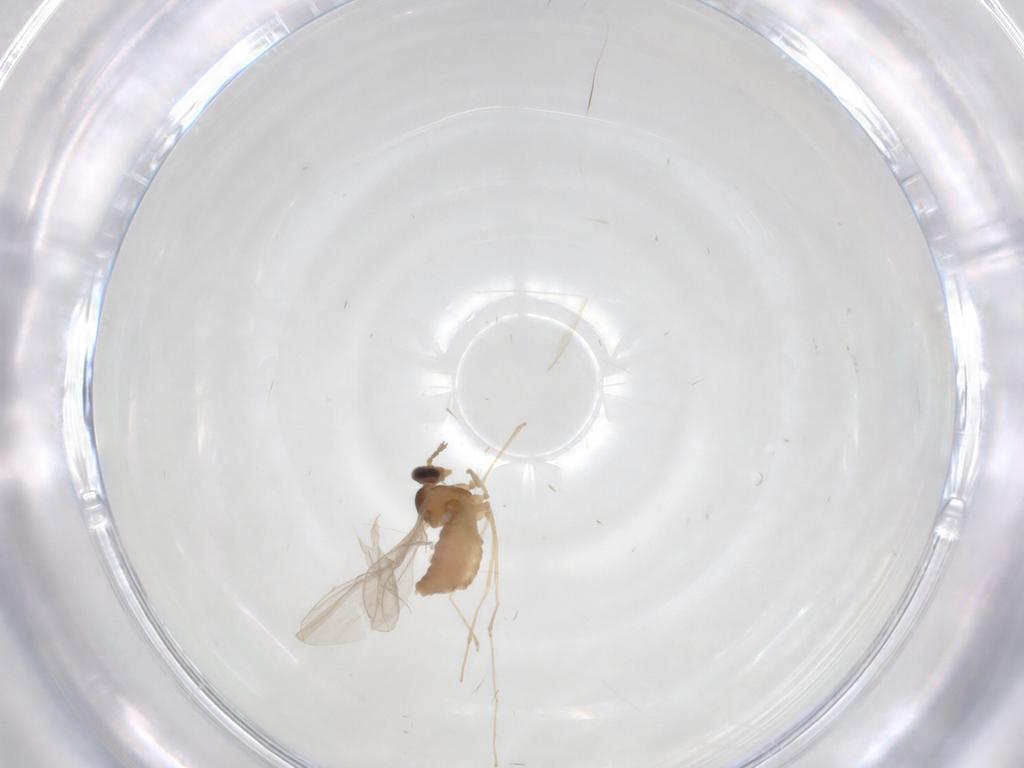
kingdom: Animalia
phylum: Arthropoda
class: Insecta
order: Diptera
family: Cecidomyiidae
